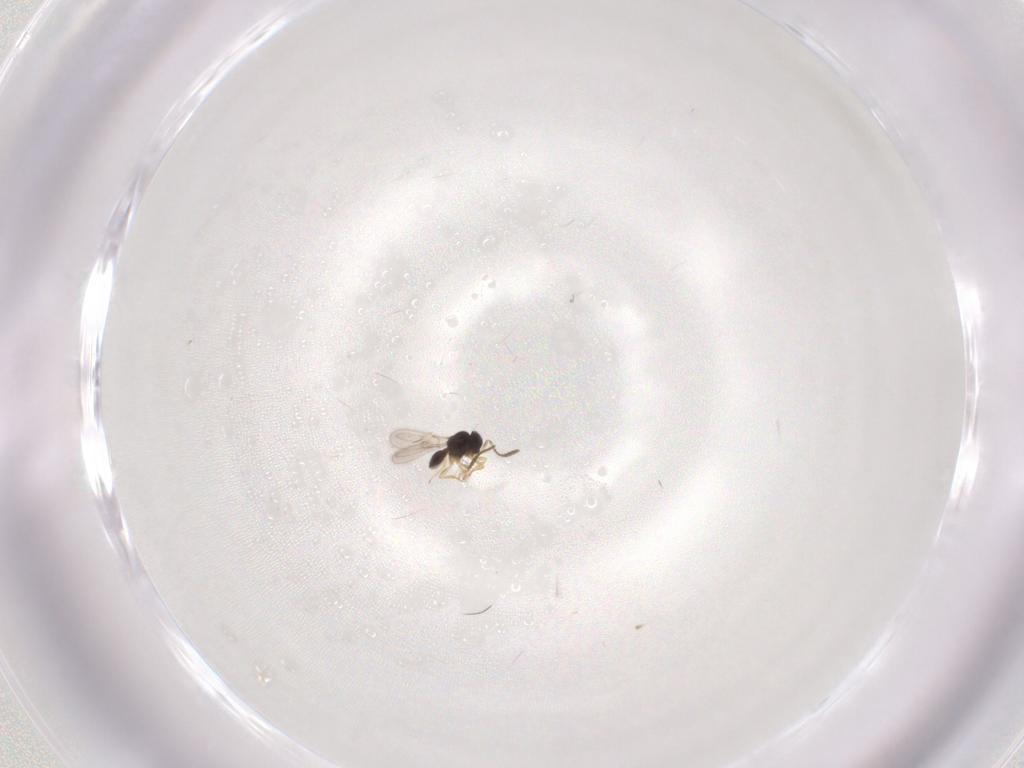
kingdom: Animalia
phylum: Arthropoda
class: Insecta
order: Hymenoptera
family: Scelionidae
